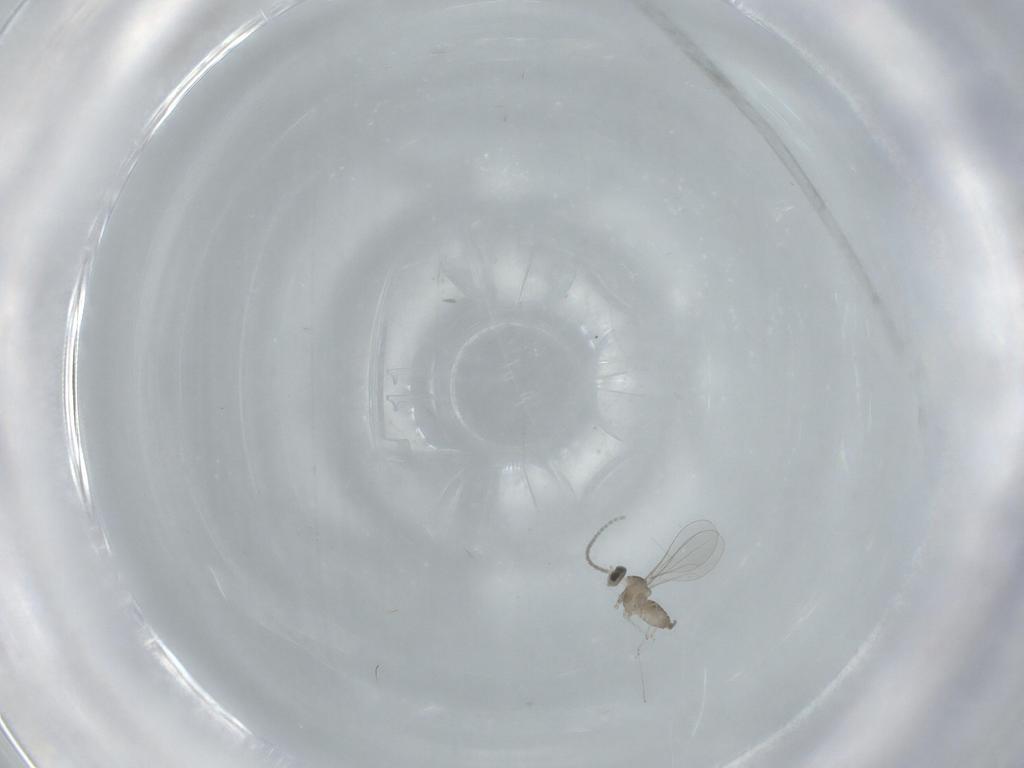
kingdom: Animalia
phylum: Arthropoda
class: Insecta
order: Diptera
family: Cecidomyiidae
